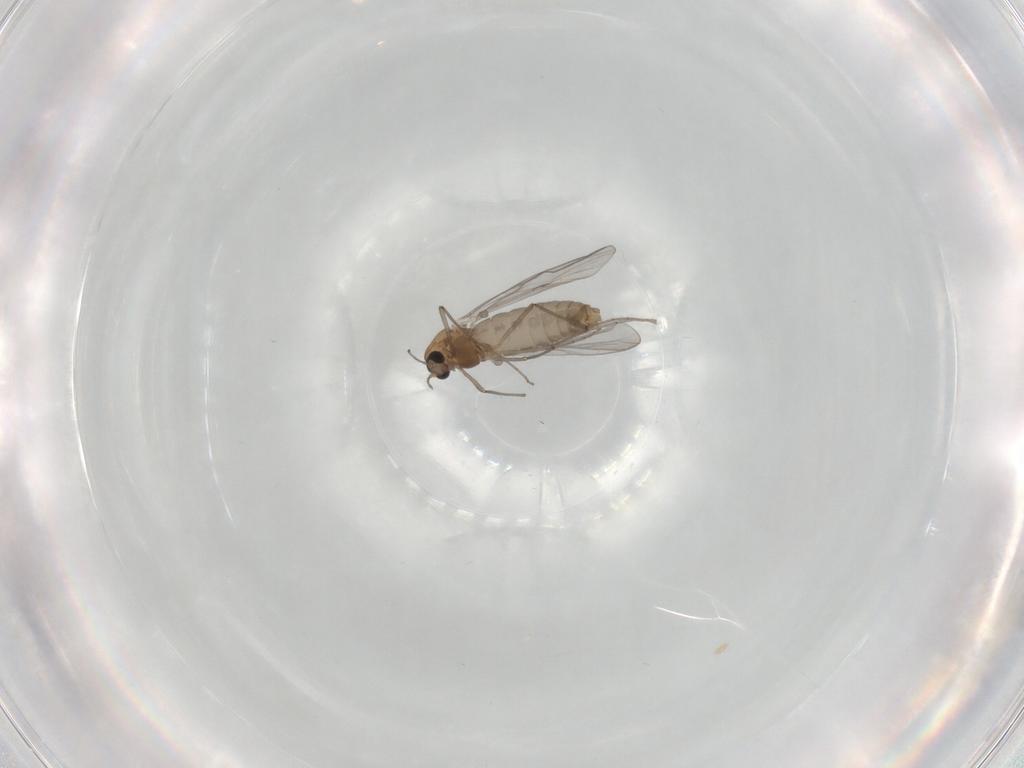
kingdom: Animalia
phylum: Arthropoda
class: Insecta
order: Diptera
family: Chironomidae
